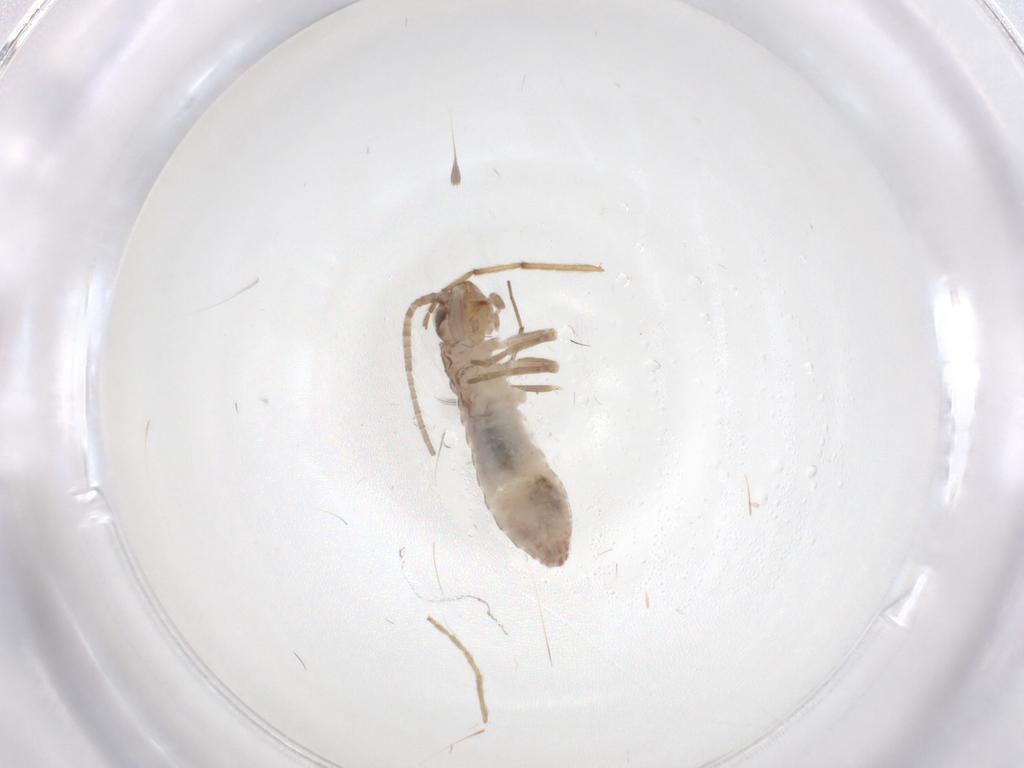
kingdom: Animalia
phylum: Arthropoda
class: Insecta
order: Orthoptera
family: Mogoplistidae
